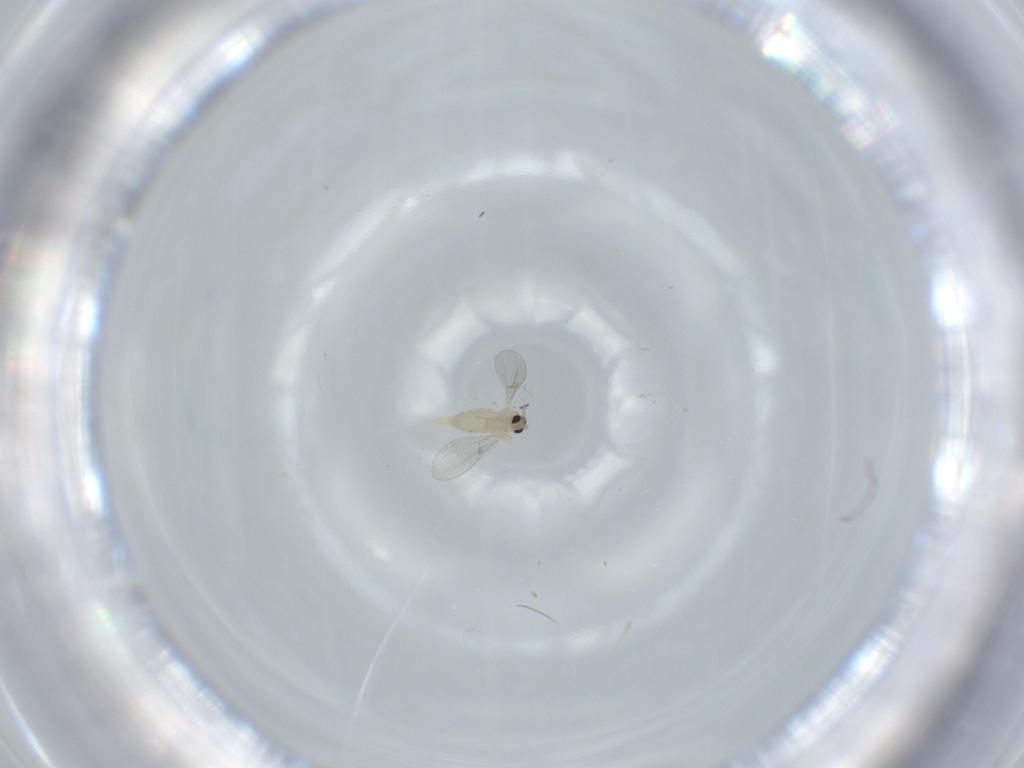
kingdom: Animalia
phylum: Arthropoda
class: Insecta
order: Diptera
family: Cecidomyiidae
